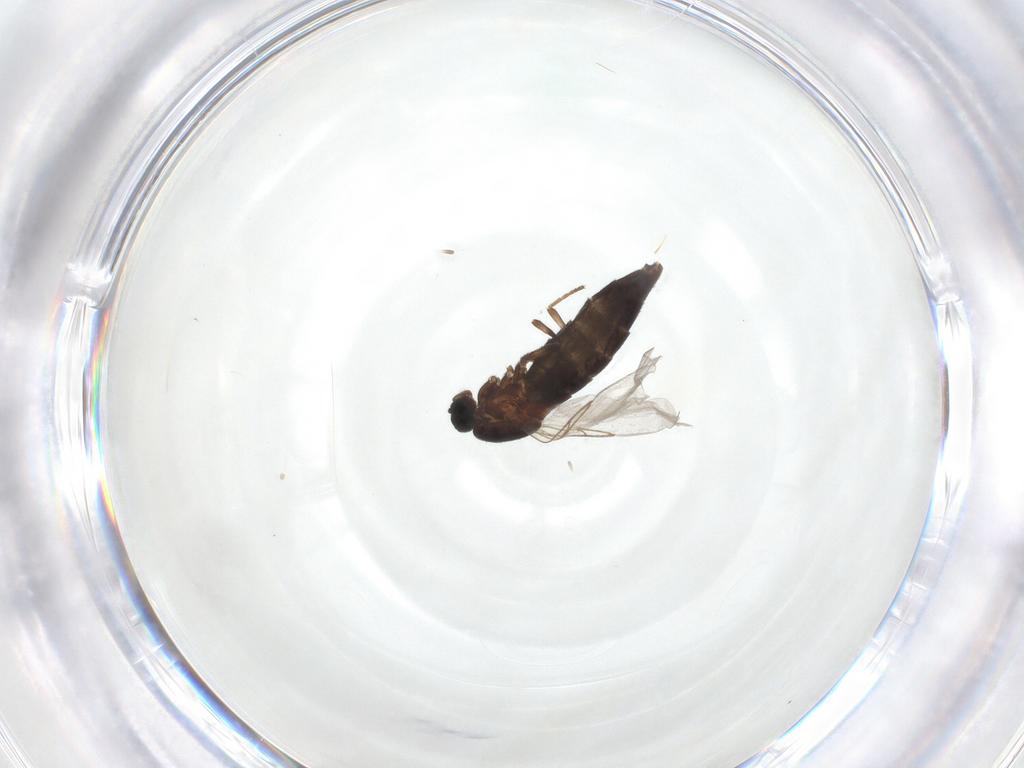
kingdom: Animalia
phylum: Arthropoda
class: Insecta
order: Diptera
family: Scatopsidae
